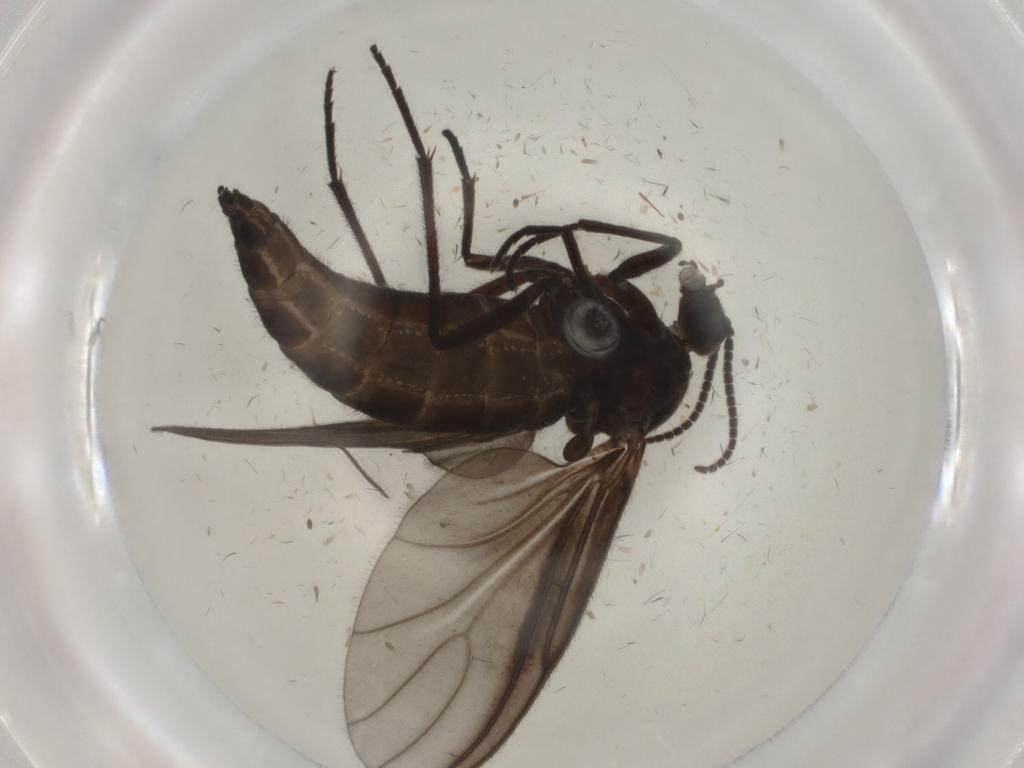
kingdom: Animalia
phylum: Arthropoda
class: Insecta
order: Diptera
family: Sciaridae
